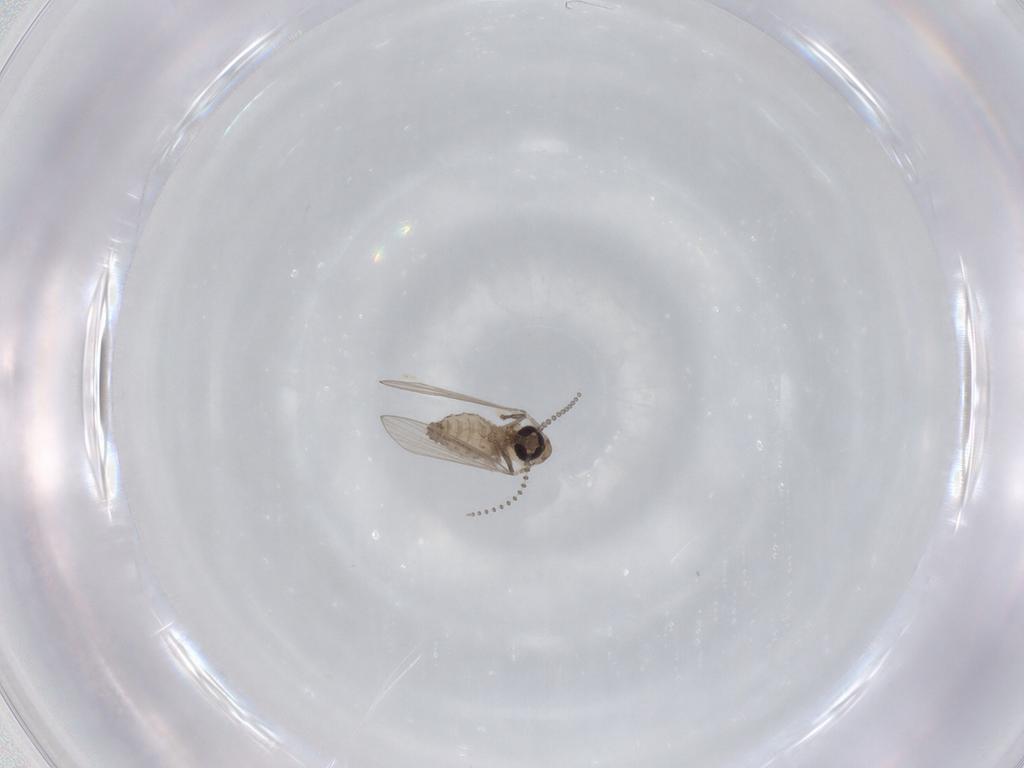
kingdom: Animalia
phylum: Arthropoda
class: Insecta
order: Diptera
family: Psychodidae
